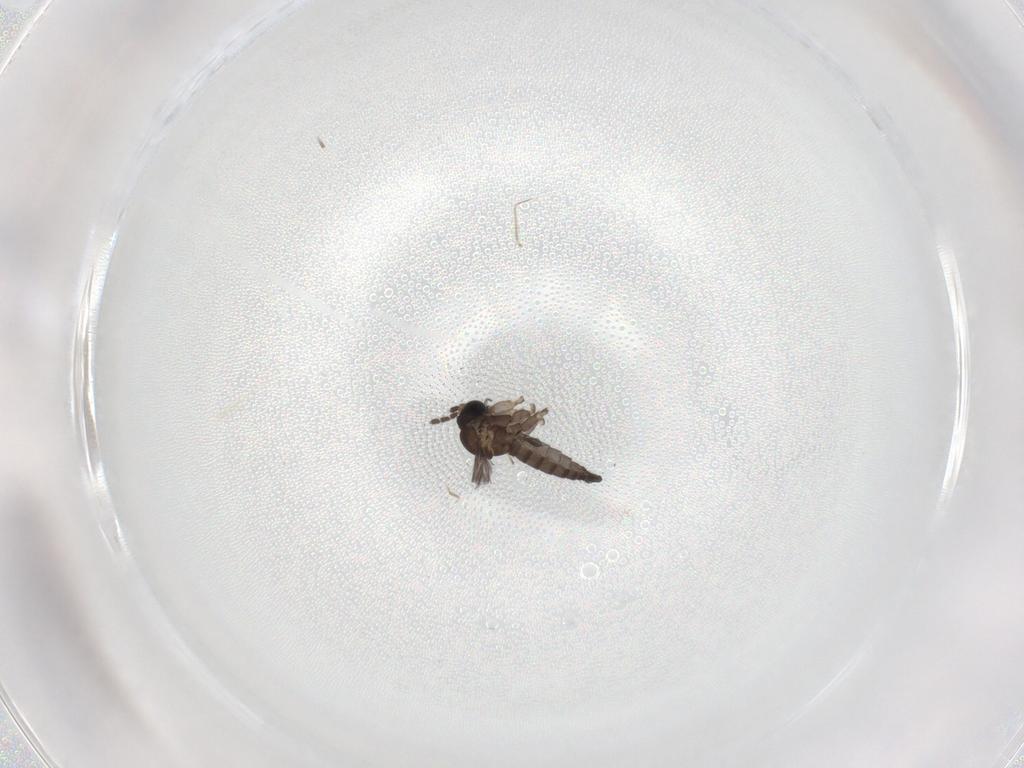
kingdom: Animalia
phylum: Arthropoda
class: Insecta
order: Diptera
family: Sciaridae
